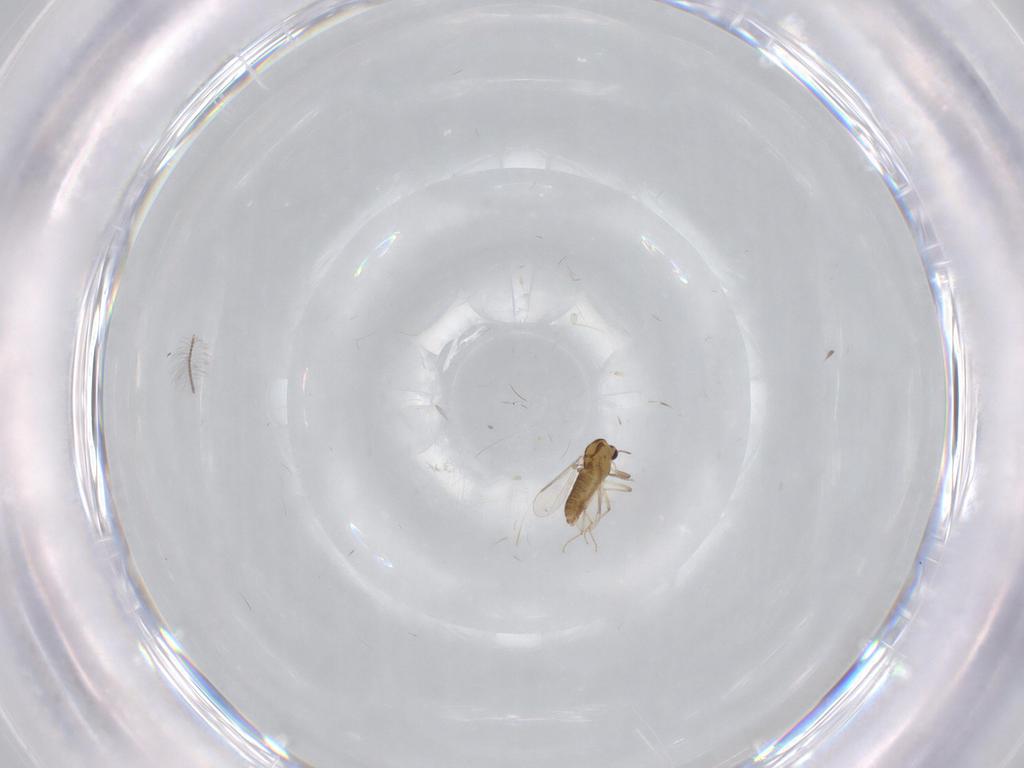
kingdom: Animalia
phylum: Arthropoda
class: Insecta
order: Diptera
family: Chironomidae
